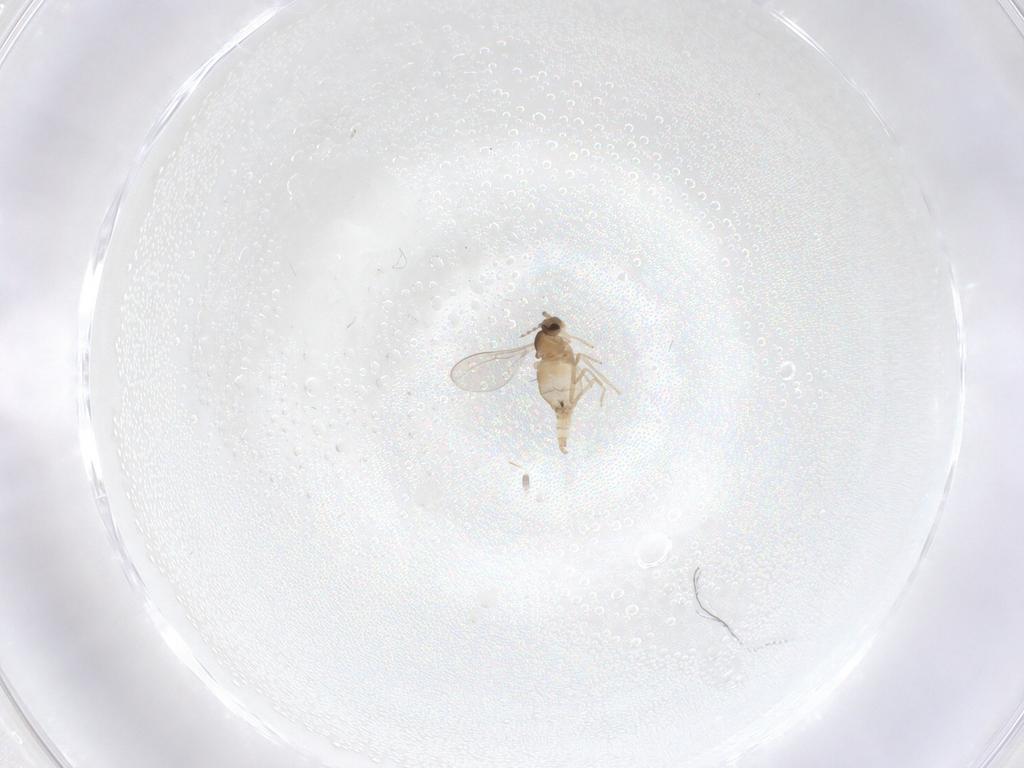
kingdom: Animalia
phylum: Arthropoda
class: Insecta
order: Diptera
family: Cecidomyiidae
